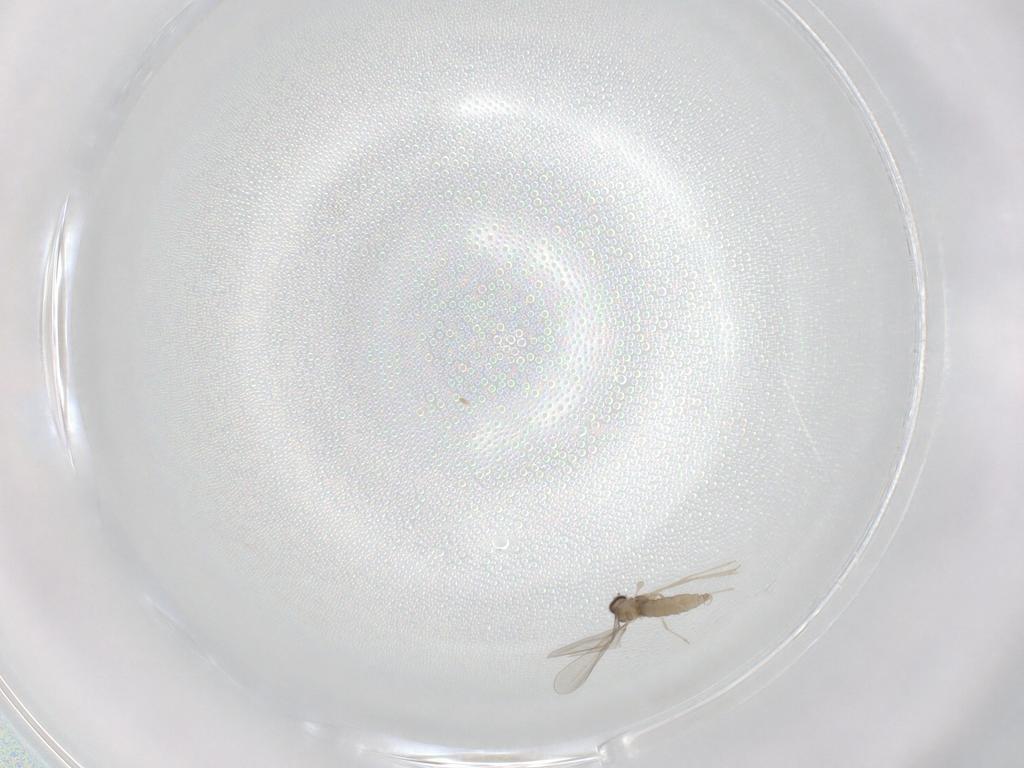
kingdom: Animalia
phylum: Arthropoda
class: Insecta
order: Diptera
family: Cecidomyiidae
